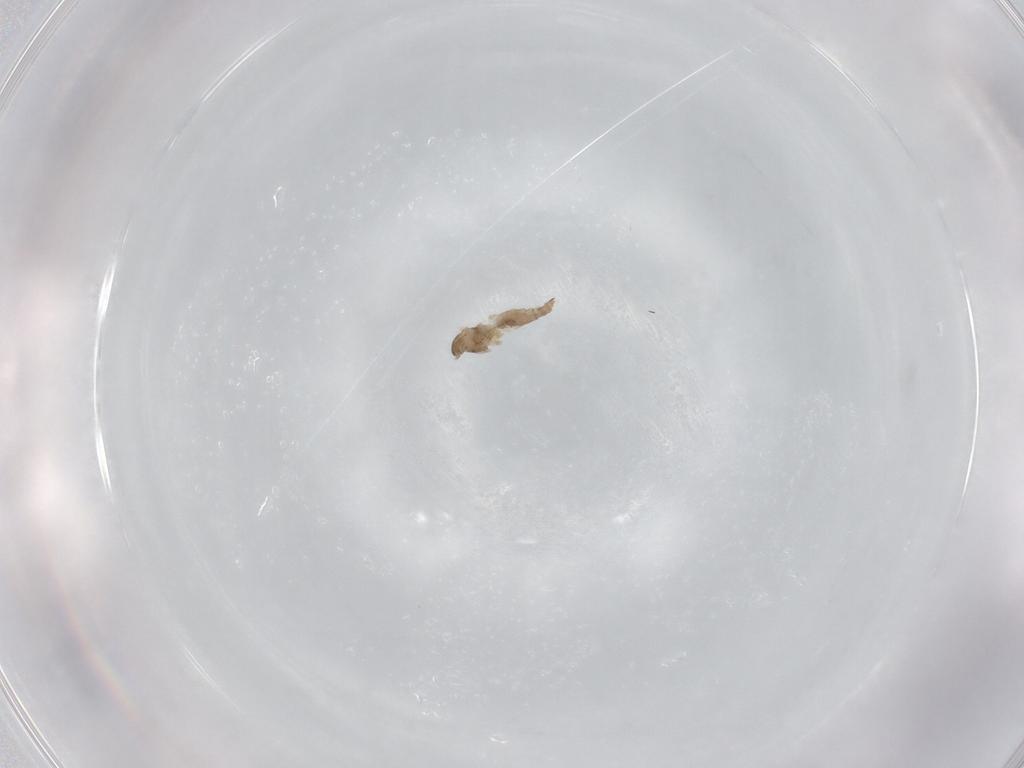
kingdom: Animalia
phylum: Arthropoda
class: Insecta
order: Diptera
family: Cecidomyiidae
